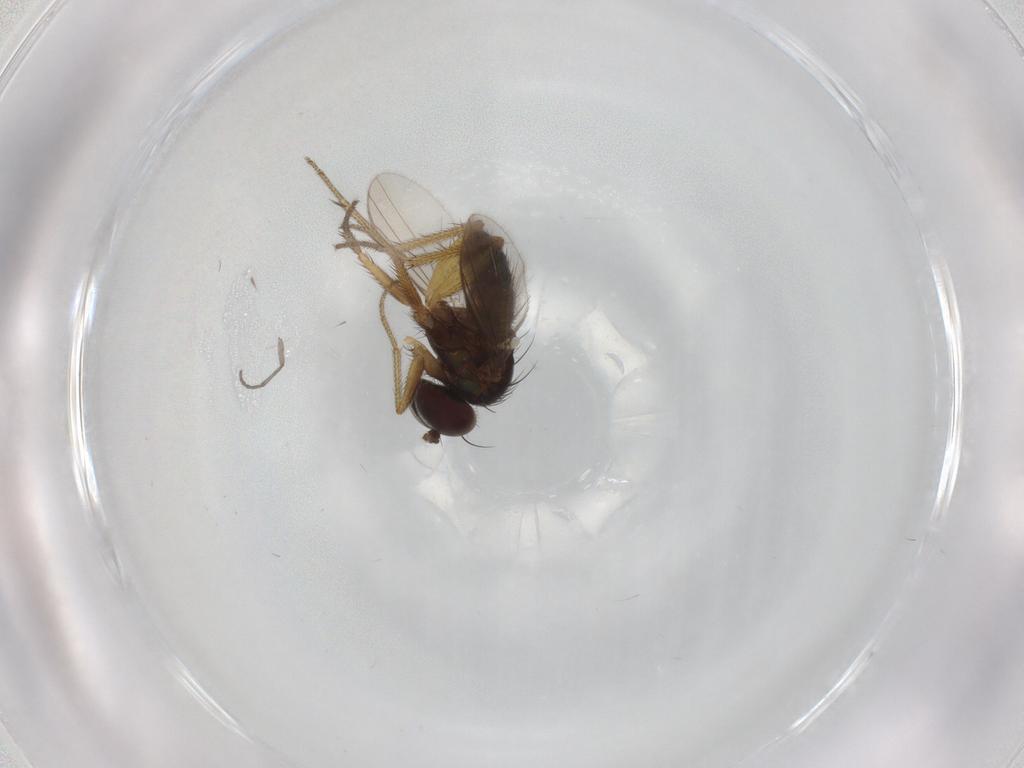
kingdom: Animalia
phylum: Arthropoda
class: Insecta
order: Diptera
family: Sciaridae
